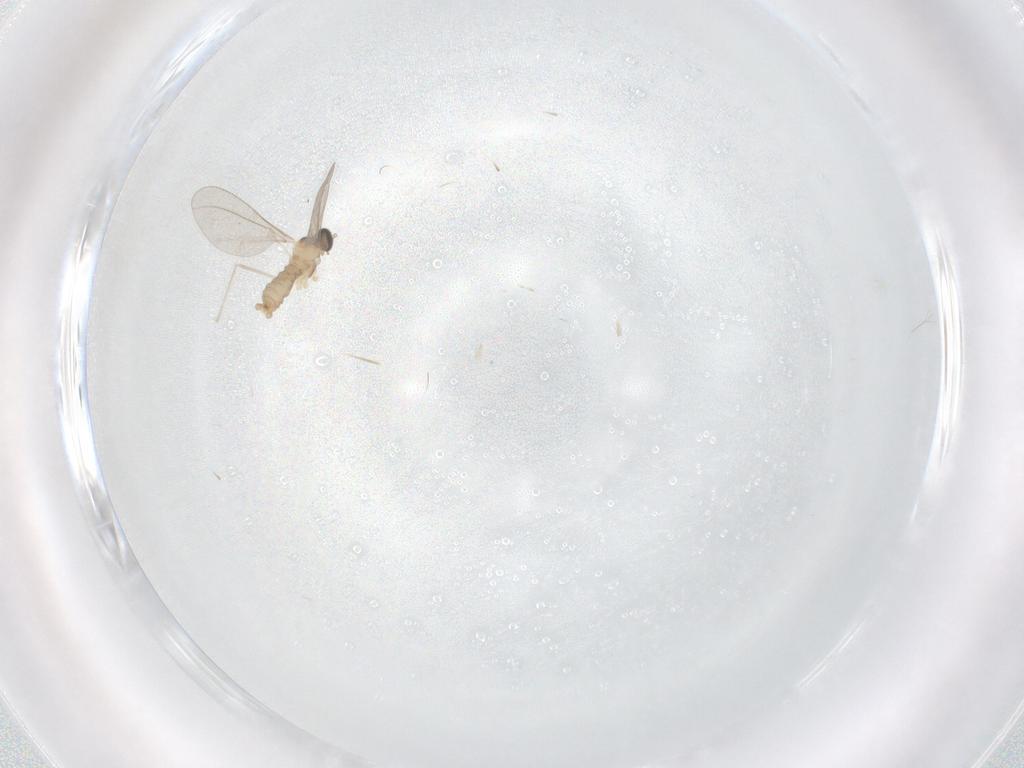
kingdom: Animalia
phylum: Arthropoda
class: Insecta
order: Diptera
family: Cecidomyiidae
